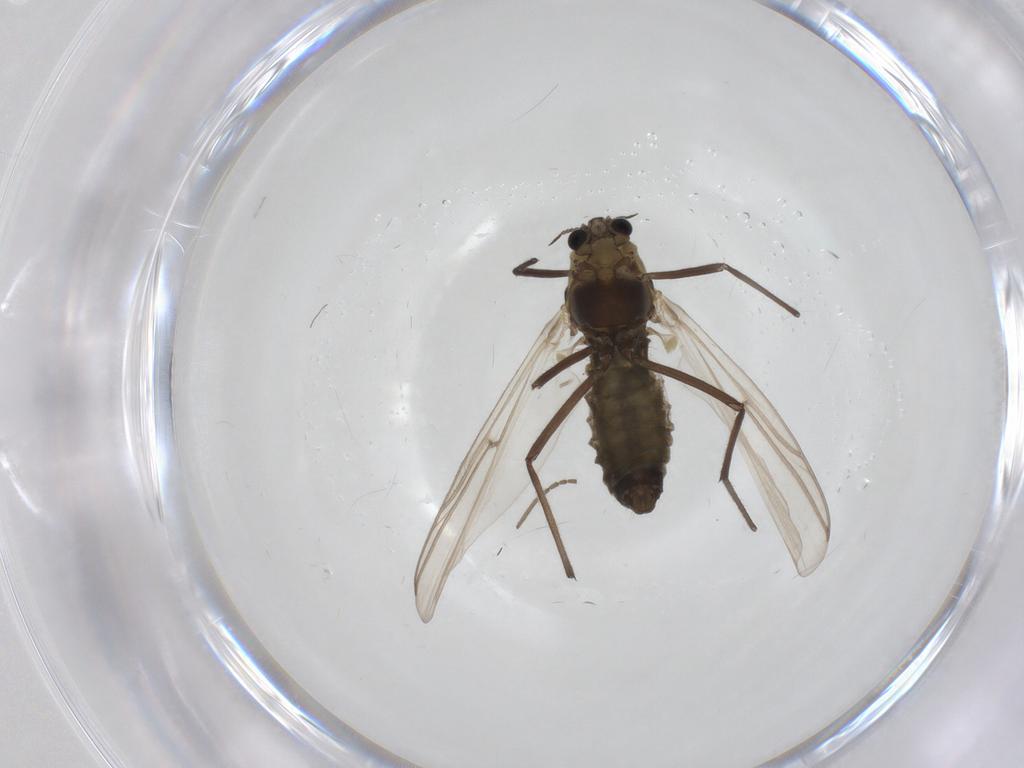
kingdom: Animalia
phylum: Arthropoda
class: Insecta
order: Diptera
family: Chironomidae
